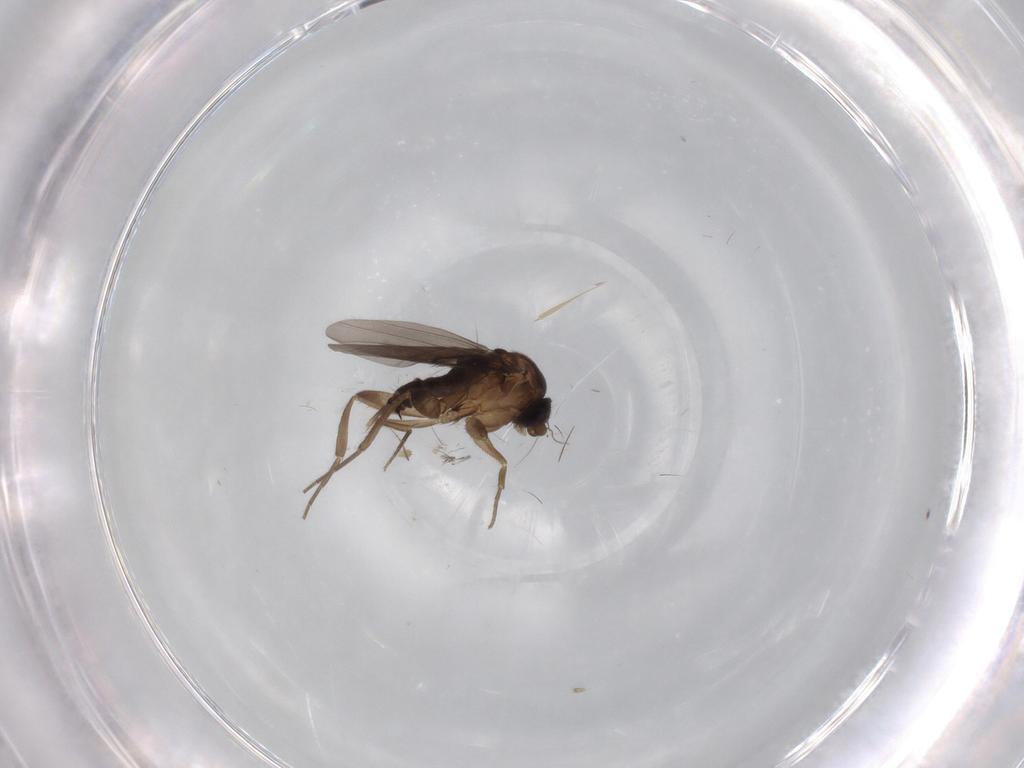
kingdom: Animalia
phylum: Arthropoda
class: Insecta
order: Diptera
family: Phoridae
